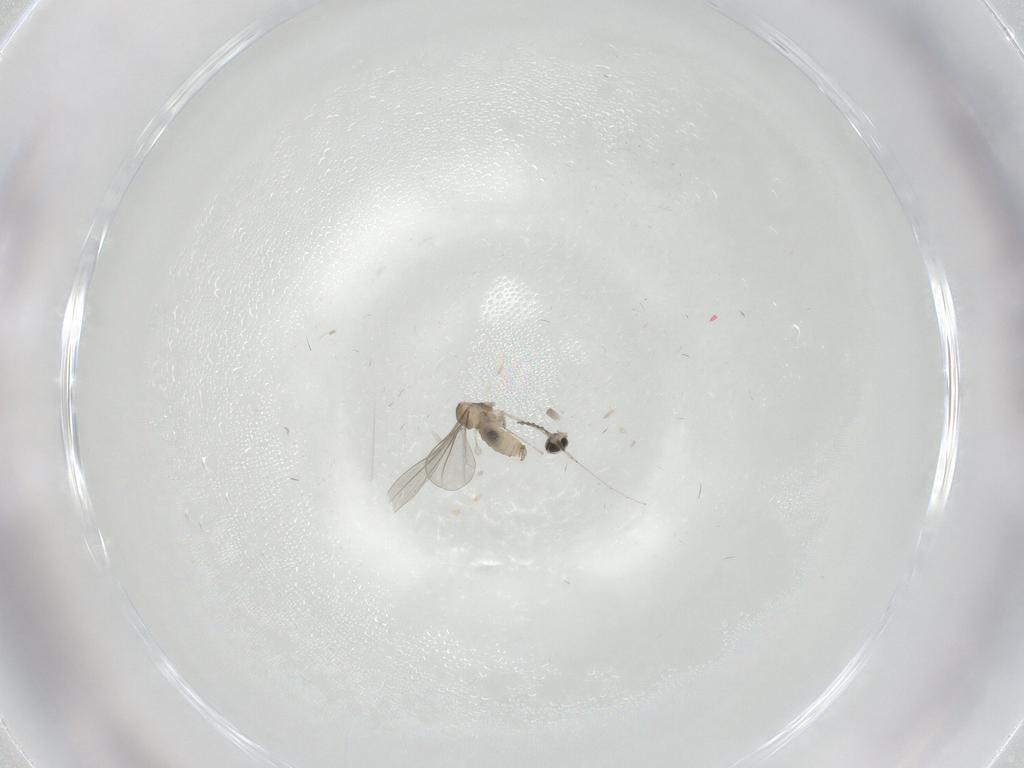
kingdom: Animalia
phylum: Arthropoda
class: Insecta
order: Diptera
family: Cecidomyiidae
